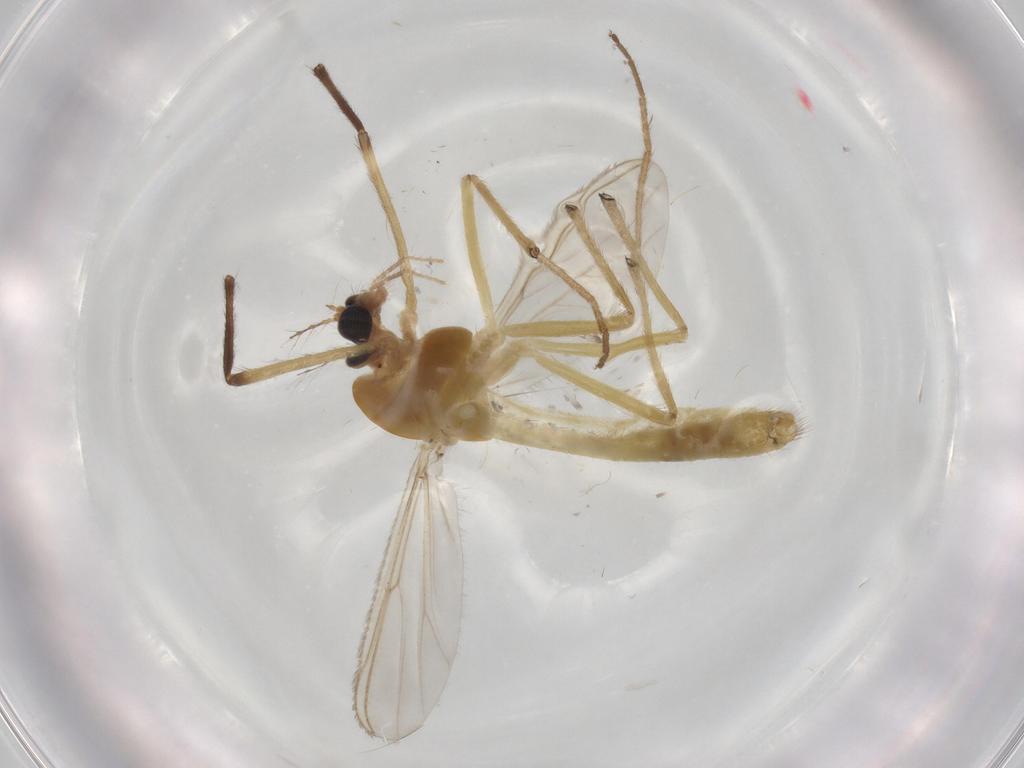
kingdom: Animalia
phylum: Arthropoda
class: Insecta
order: Diptera
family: Chironomidae
